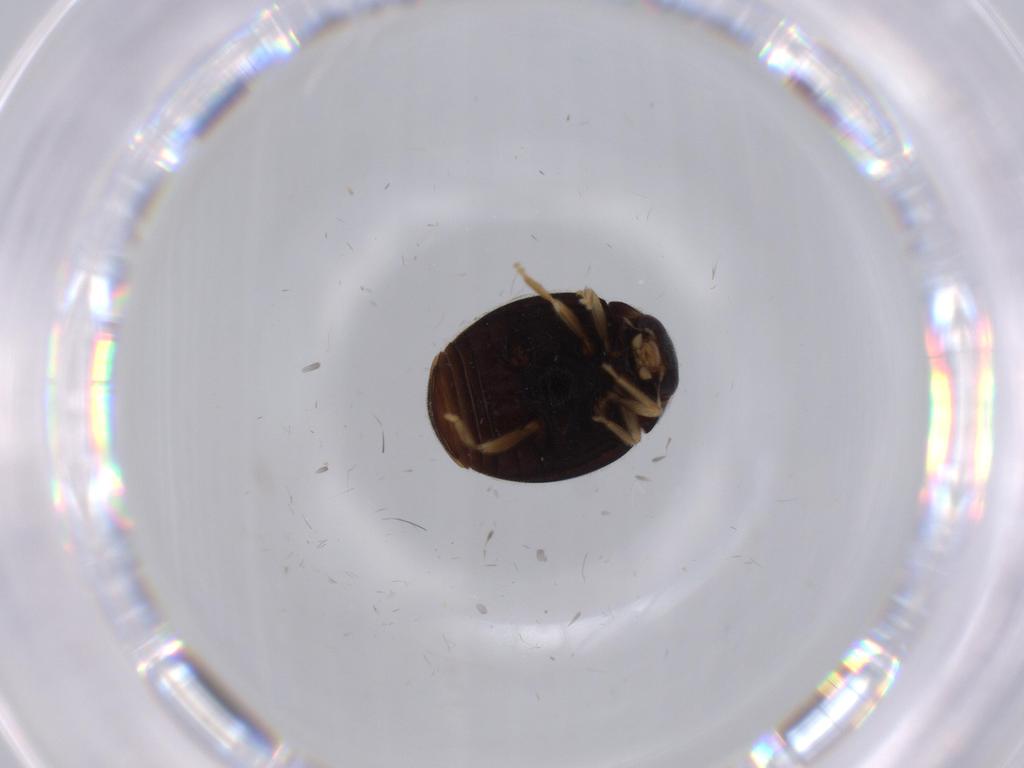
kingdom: Animalia
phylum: Arthropoda
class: Insecta
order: Coleoptera
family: Coccinellidae
